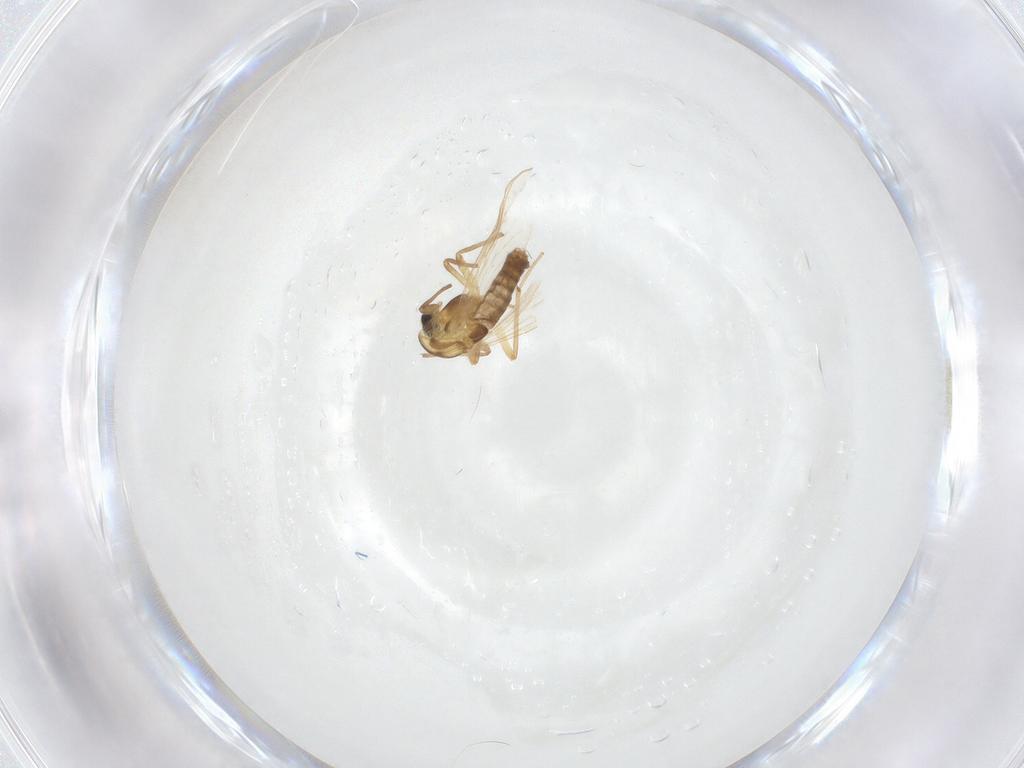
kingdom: Animalia
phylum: Arthropoda
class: Insecta
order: Diptera
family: Chironomidae
